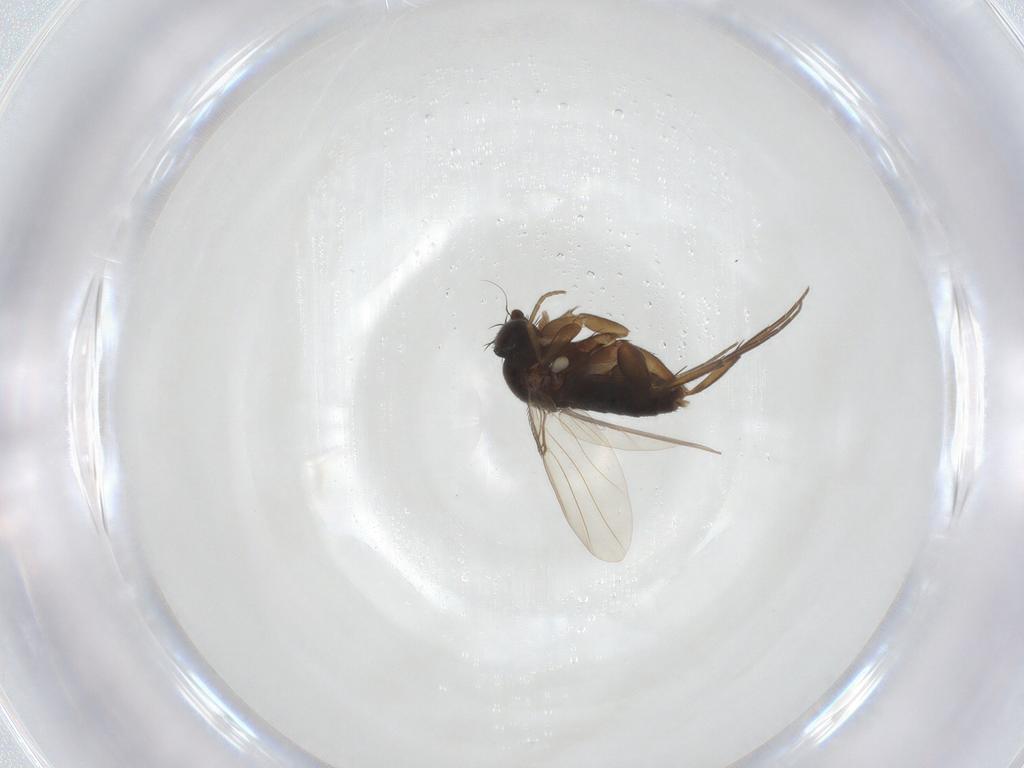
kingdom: Animalia
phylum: Arthropoda
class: Insecta
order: Diptera
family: Phoridae
